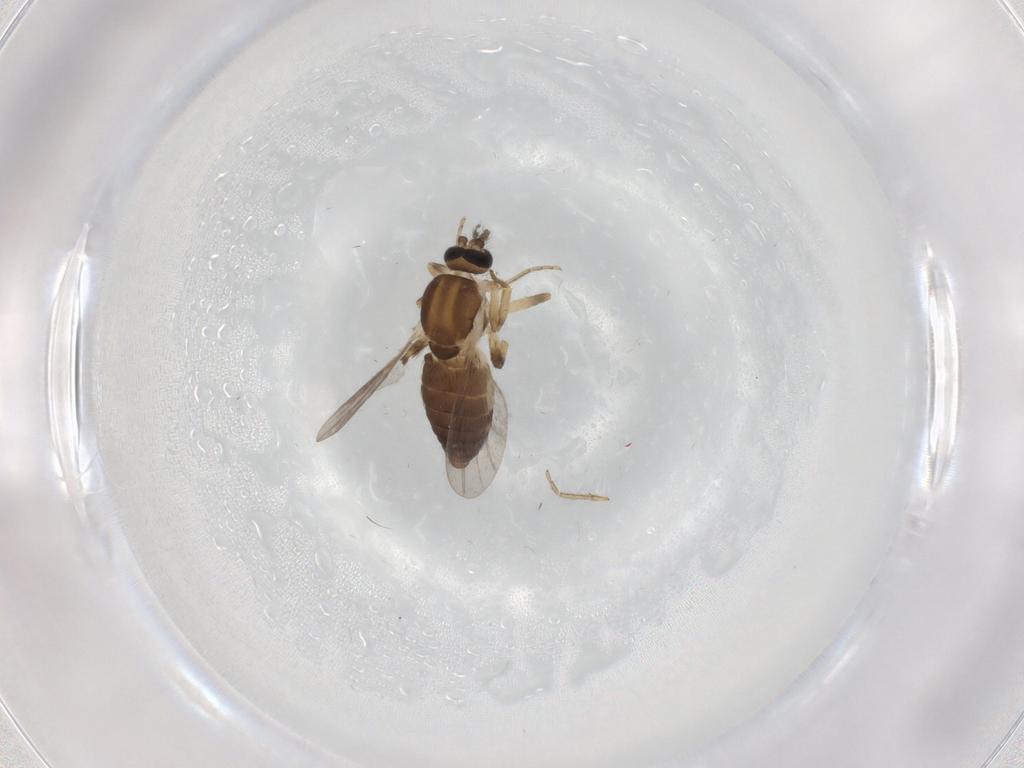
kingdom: Animalia
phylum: Arthropoda
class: Insecta
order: Diptera
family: Ceratopogonidae
